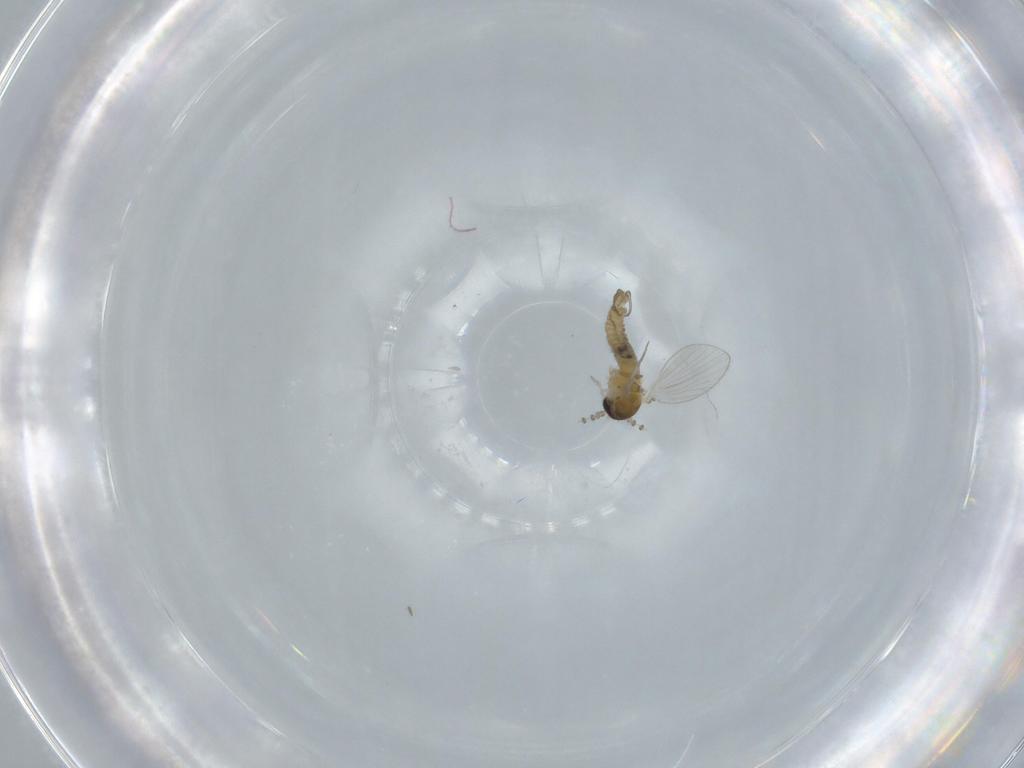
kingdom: Animalia
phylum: Arthropoda
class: Insecta
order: Diptera
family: Psychodidae
